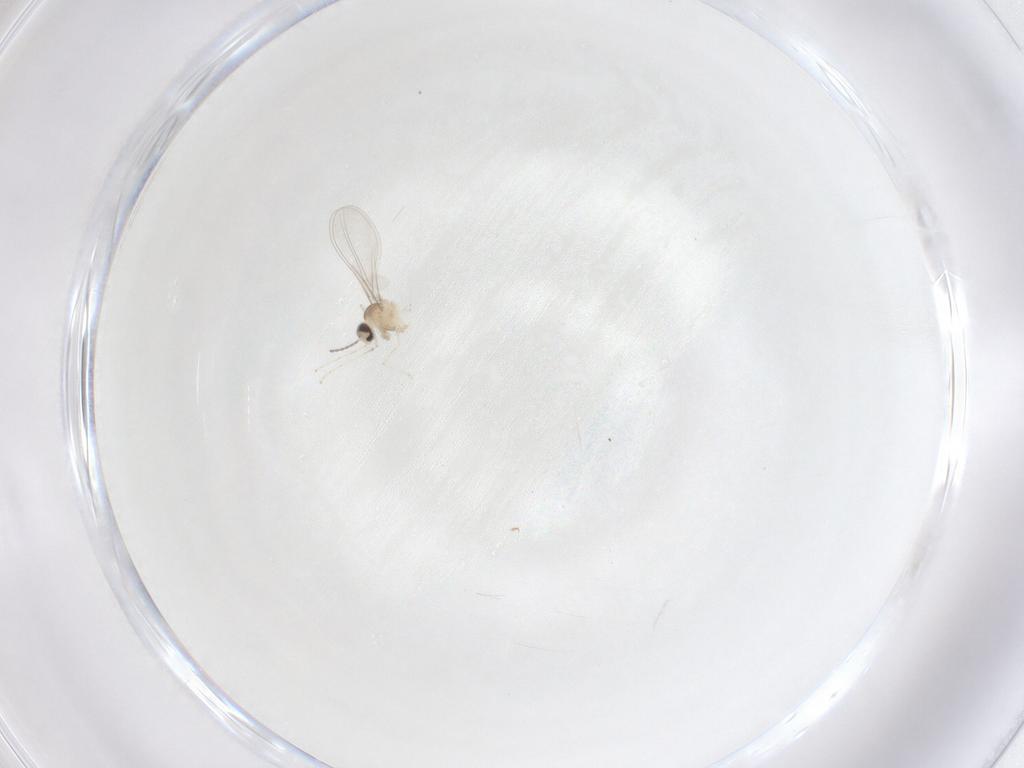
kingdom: Animalia
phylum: Arthropoda
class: Insecta
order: Diptera
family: Cecidomyiidae
